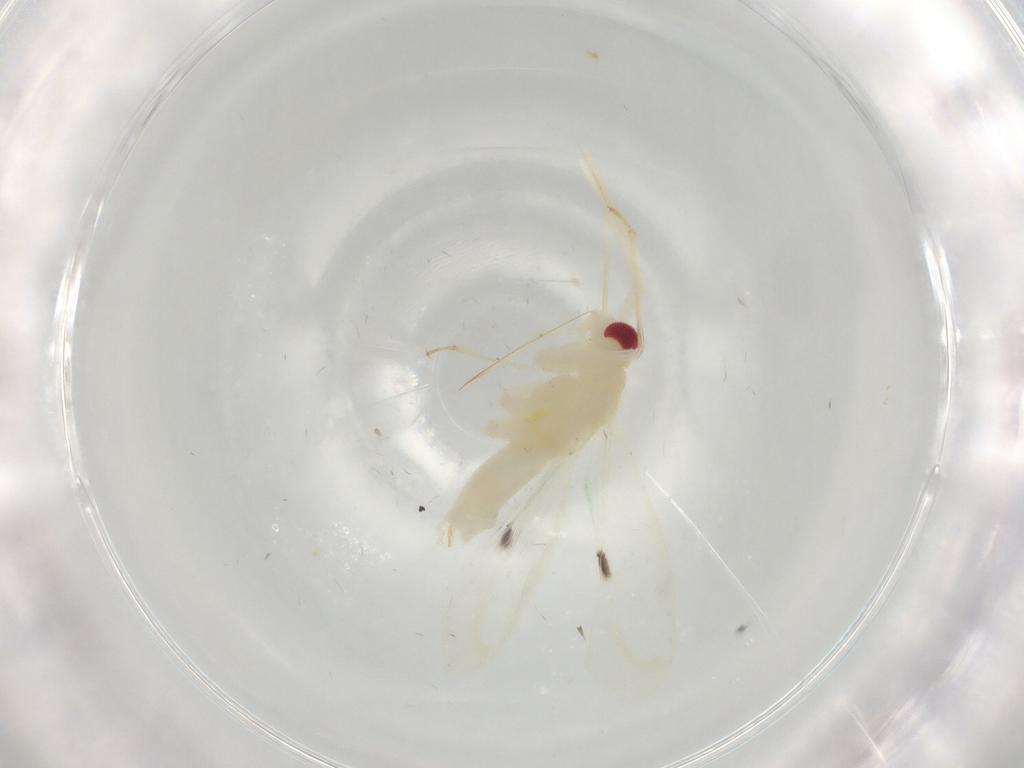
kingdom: Animalia
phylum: Arthropoda
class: Insecta
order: Hemiptera
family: Miridae
